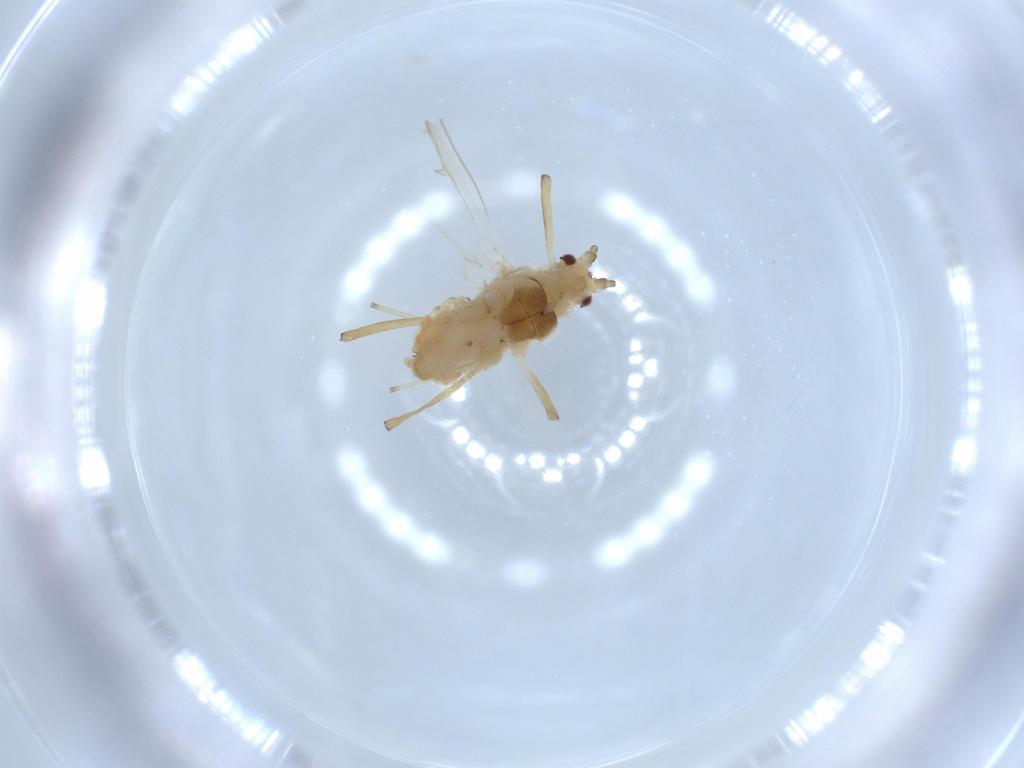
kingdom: Animalia
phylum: Arthropoda
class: Insecta
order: Hemiptera
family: Aphididae
